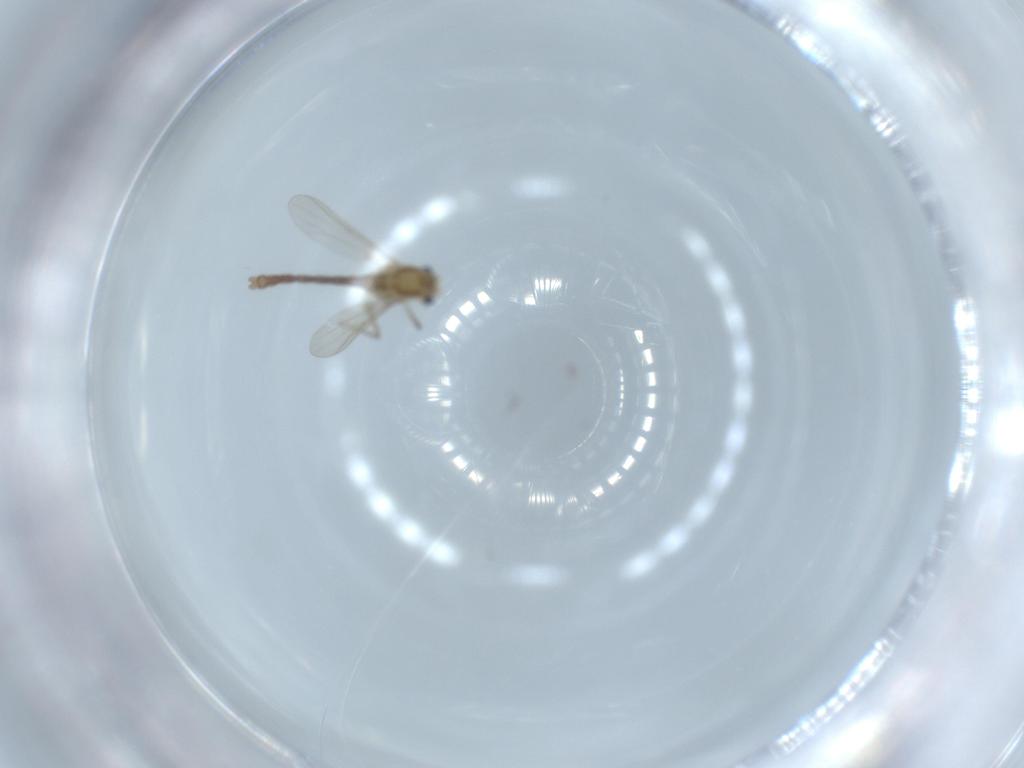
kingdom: Animalia
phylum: Arthropoda
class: Insecta
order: Diptera
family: Chironomidae
